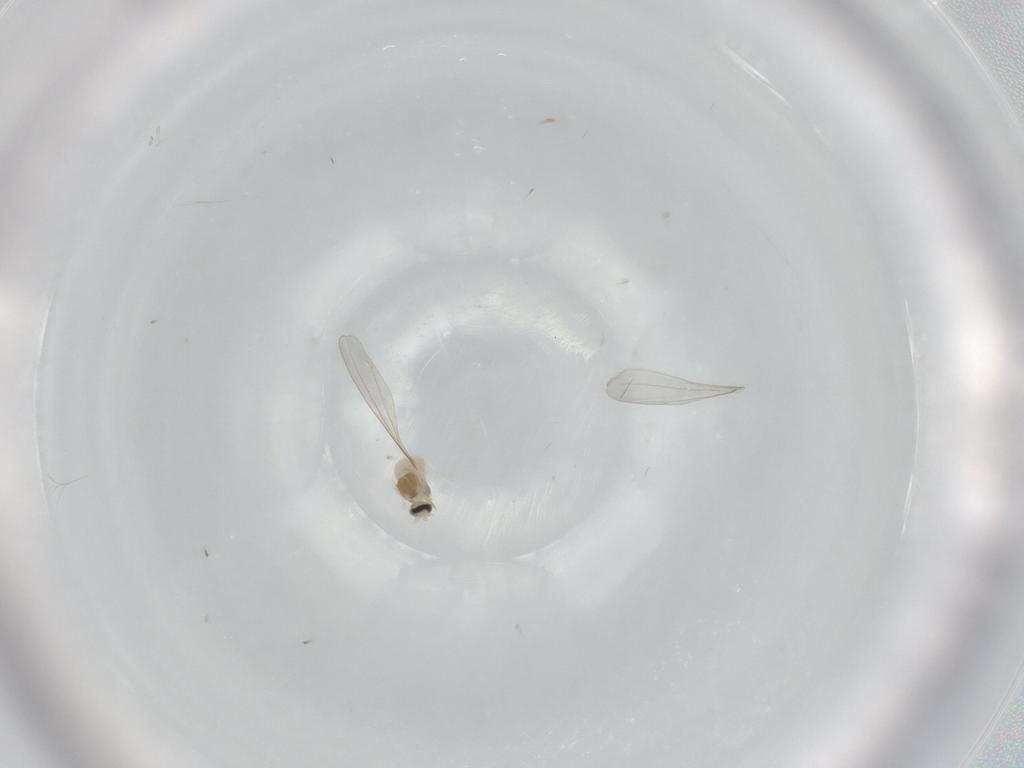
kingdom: Animalia
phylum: Arthropoda
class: Insecta
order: Diptera
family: Cecidomyiidae
